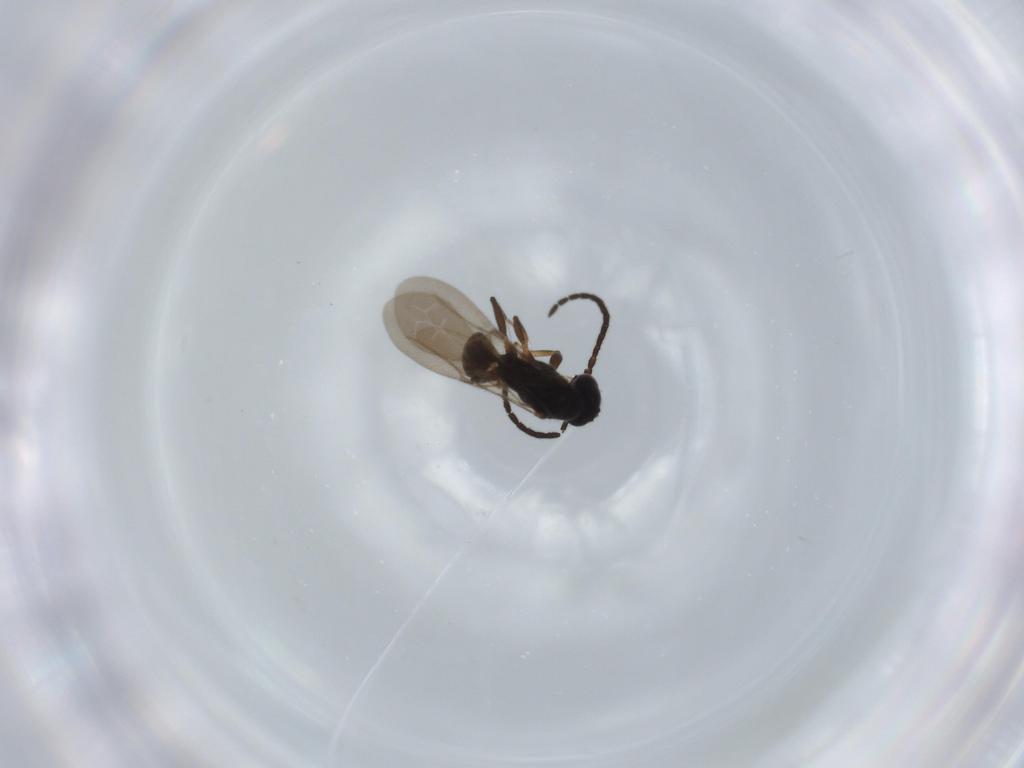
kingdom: Animalia
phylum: Arthropoda
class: Insecta
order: Hymenoptera
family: Bethylidae
